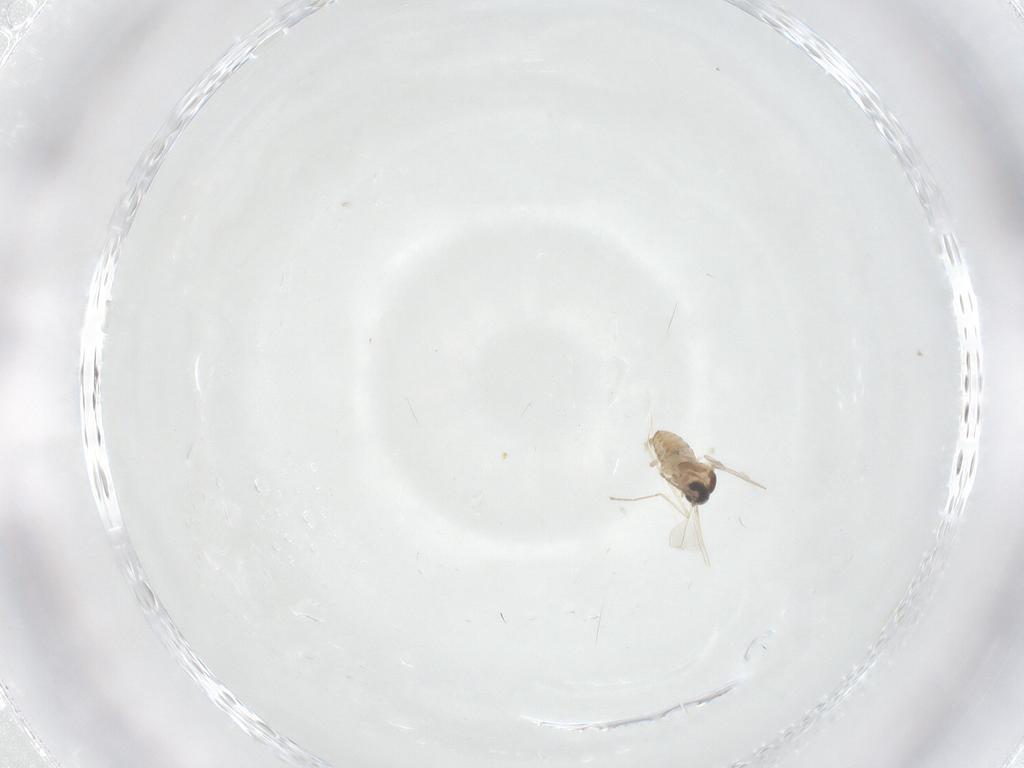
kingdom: Animalia
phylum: Arthropoda
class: Insecta
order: Diptera
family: Cecidomyiidae
